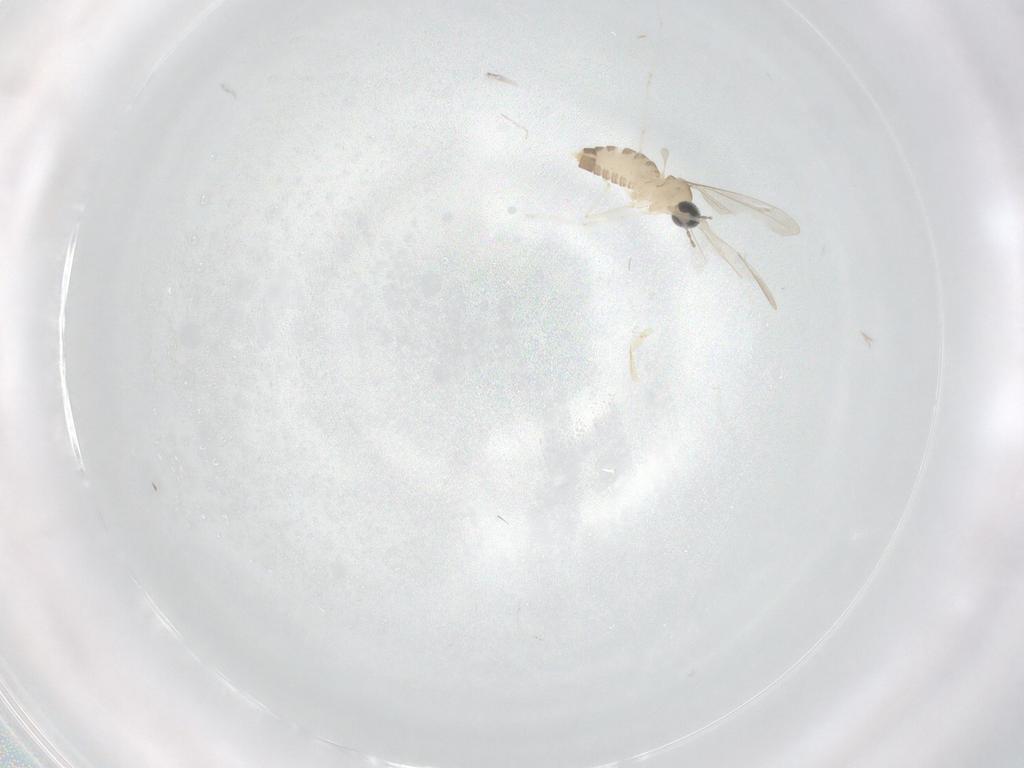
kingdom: Animalia
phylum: Arthropoda
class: Insecta
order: Diptera
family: Cecidomyiidae
